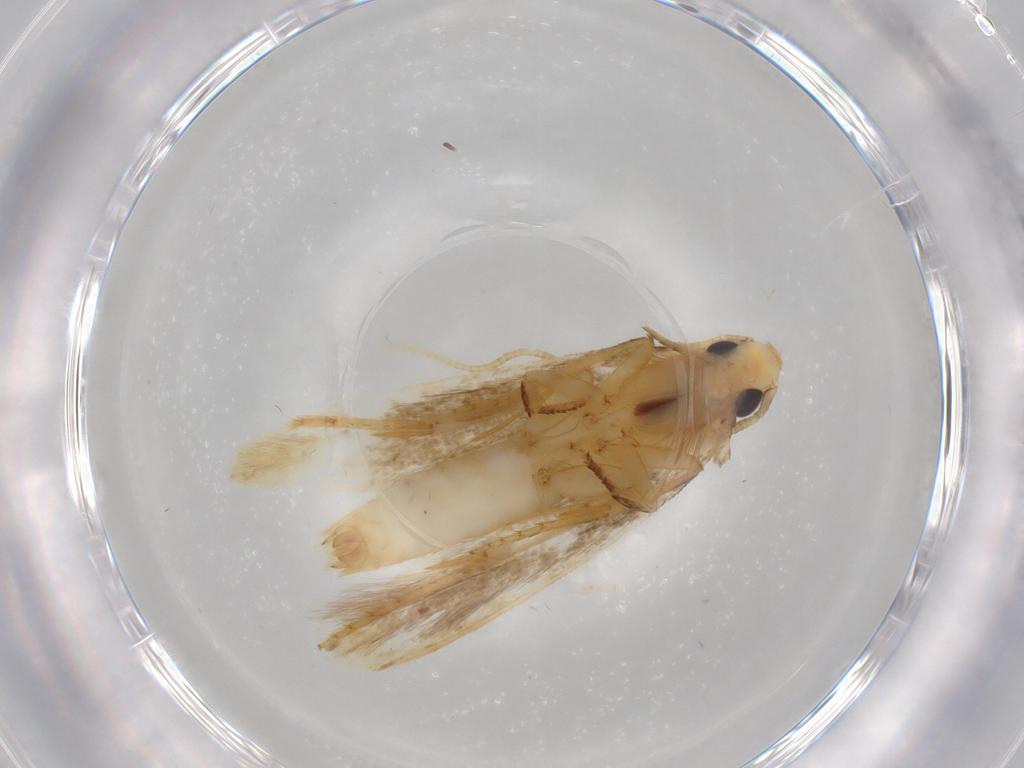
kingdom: Animalia
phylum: Arthropoda
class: Insecta
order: Lepidoptera
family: Tineidae
